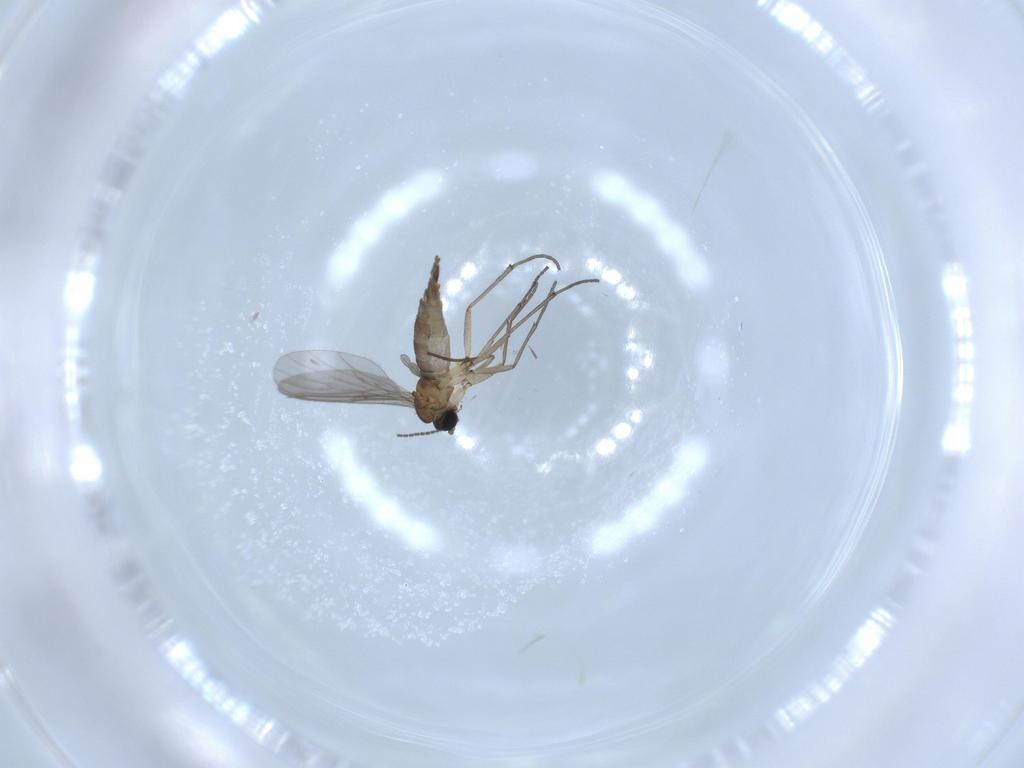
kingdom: Animalia
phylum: Arthropoda
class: Insecta
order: Diptera
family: Sciaridae
